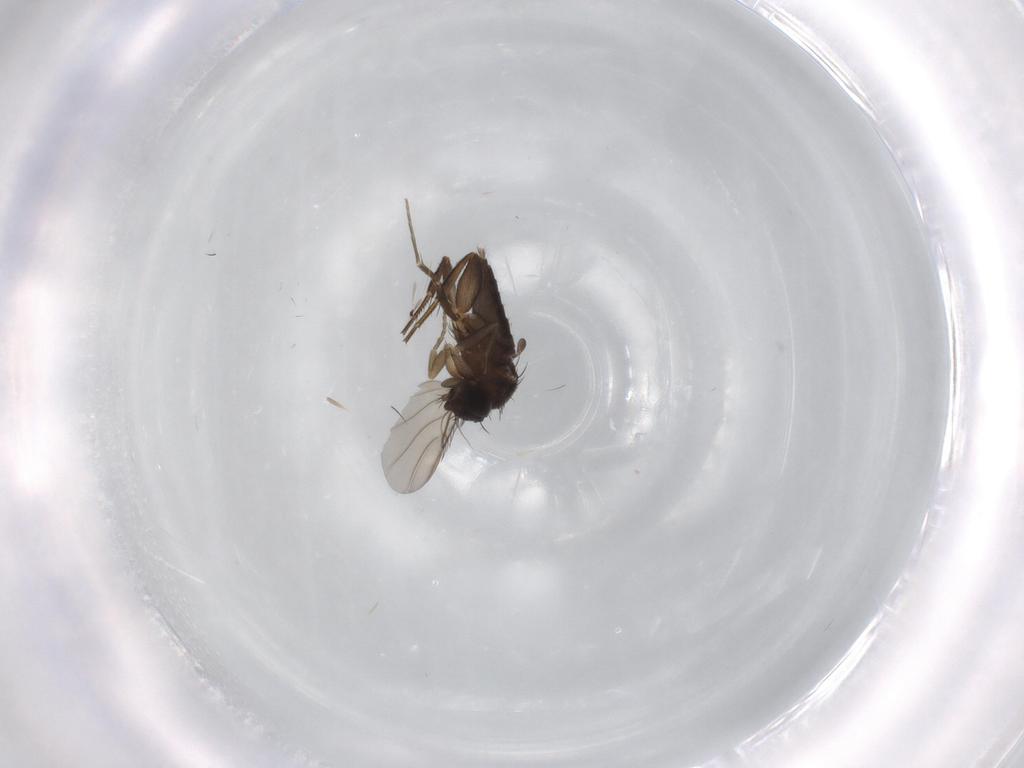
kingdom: Animalia
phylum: Arthropoda
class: Insecta
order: Diptera
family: Phoridae
